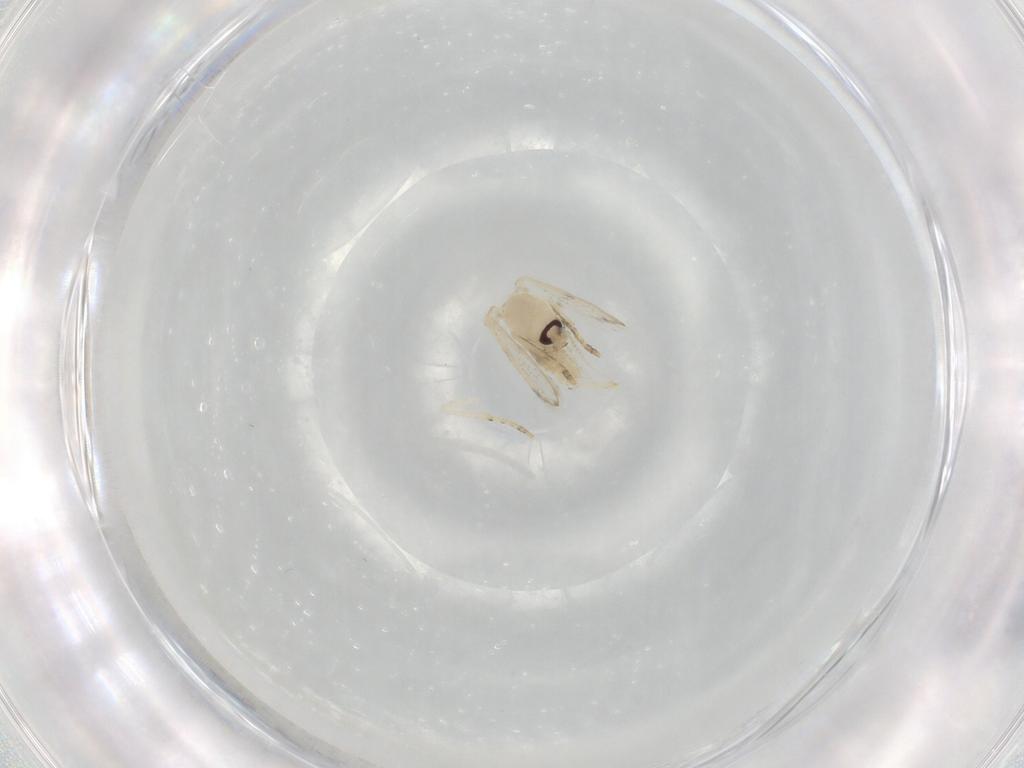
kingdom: Animalia
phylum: Arthropoda
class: Insecta
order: Diptera
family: Psychodidae
